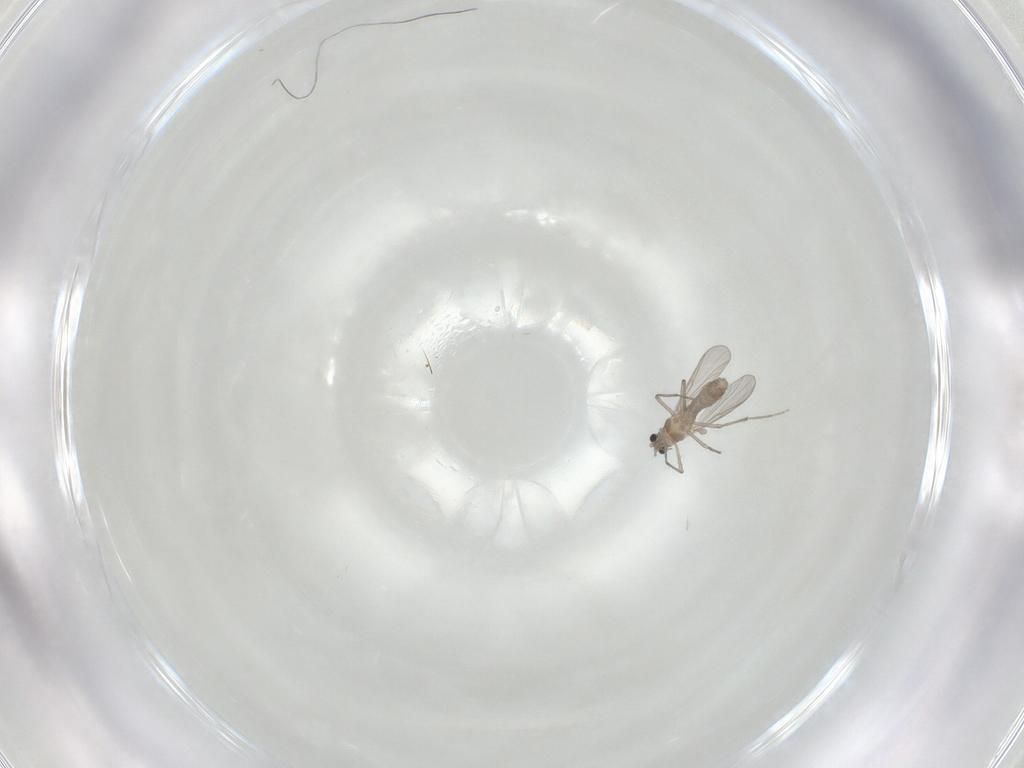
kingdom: Animalia
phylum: Arthropoda
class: Insecta
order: Diptera
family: Chironomidae
